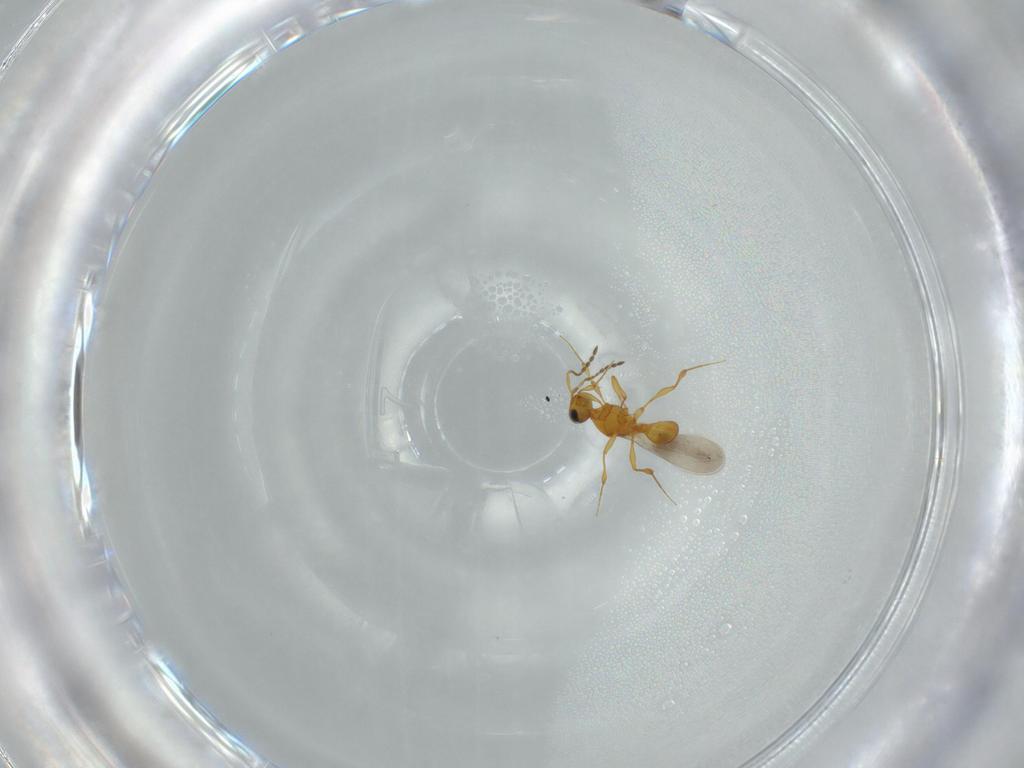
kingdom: Animalia
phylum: Arthropoda
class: Insecta
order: Hymenoptera
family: Platygastridae
